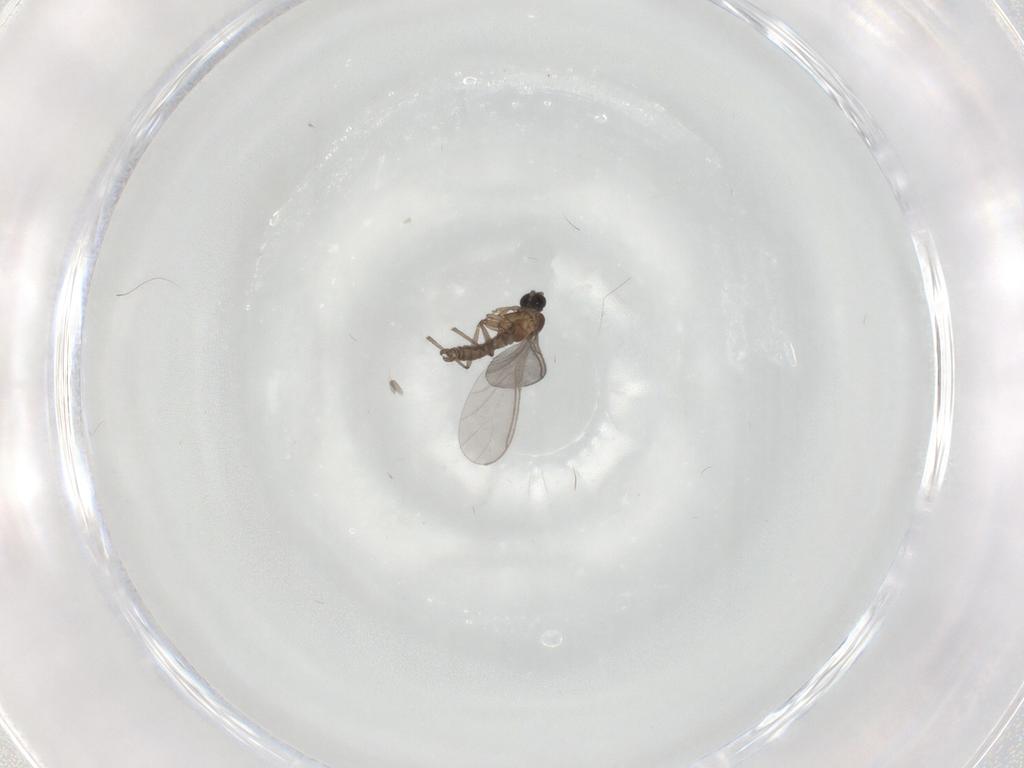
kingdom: Animalia
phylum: Arthropoda
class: Insecta
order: Diptera
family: Sciaridae
